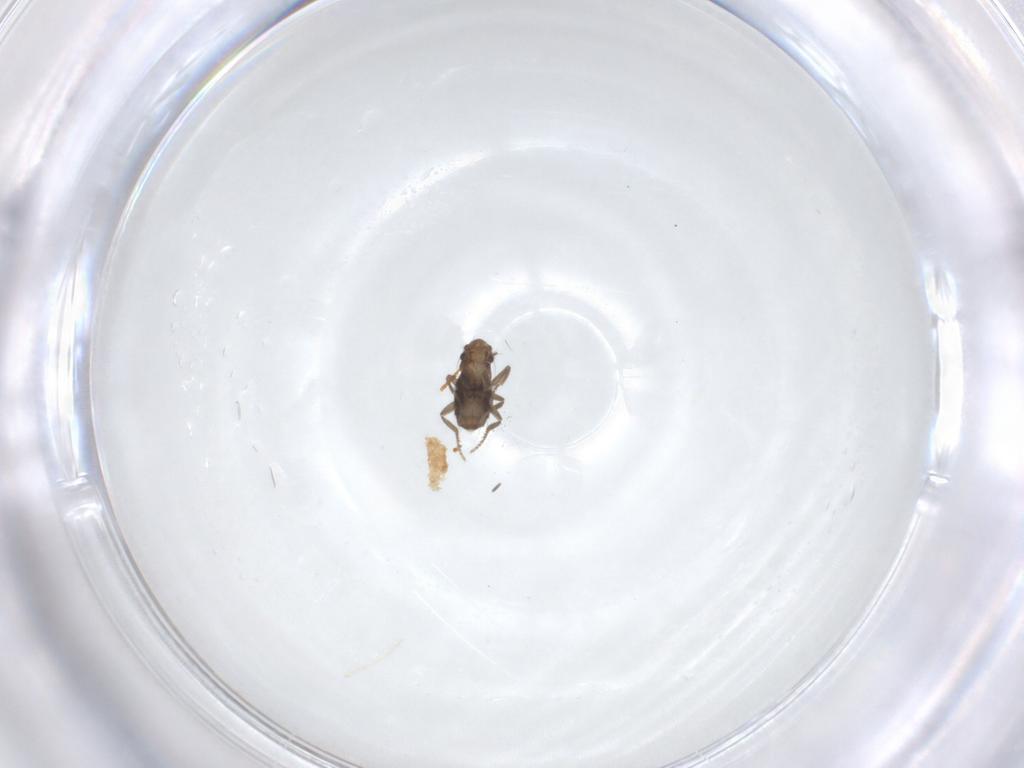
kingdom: Animalia
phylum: Arthropoda
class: Insecta
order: Diptera
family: Phoridae
